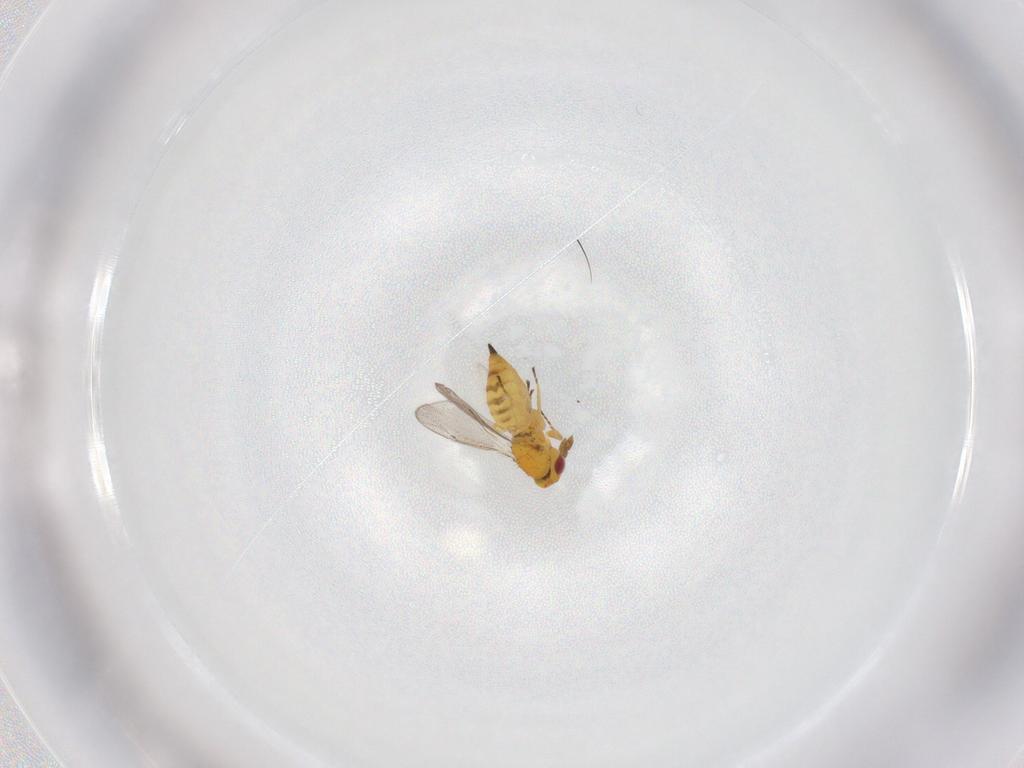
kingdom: Animalia
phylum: Arthropoda
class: Insecta
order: Hymenoptera
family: Eulophidae
